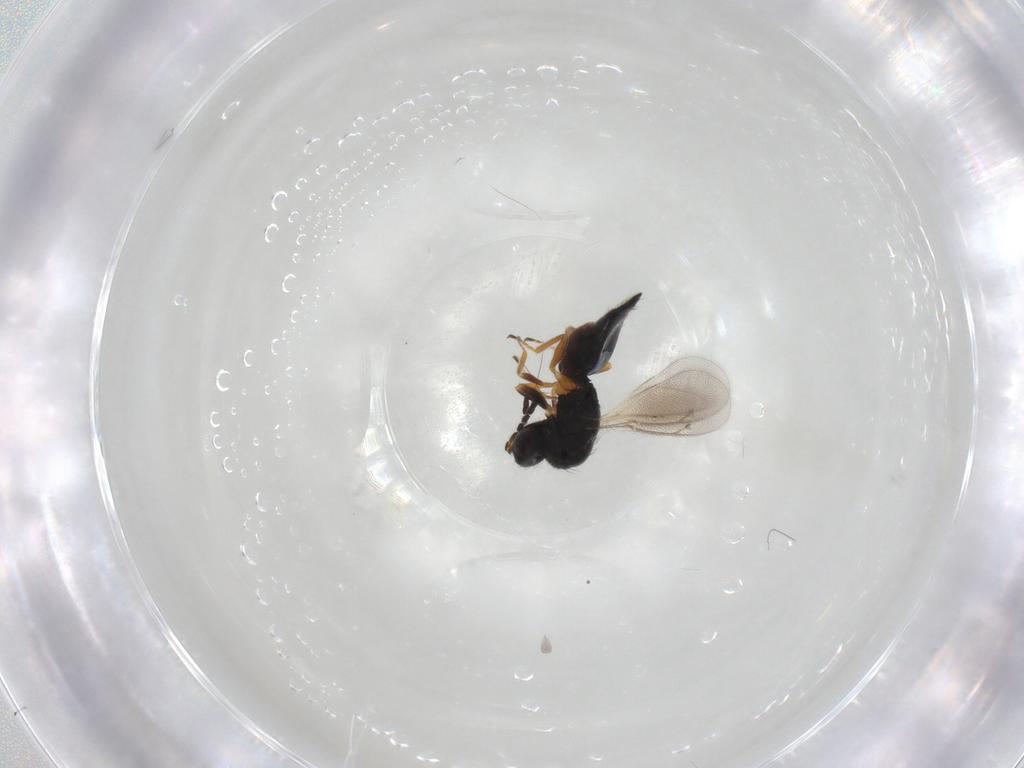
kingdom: Animalia
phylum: Arthropoda
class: Insecta
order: Hymenoptera
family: Eulophidae
